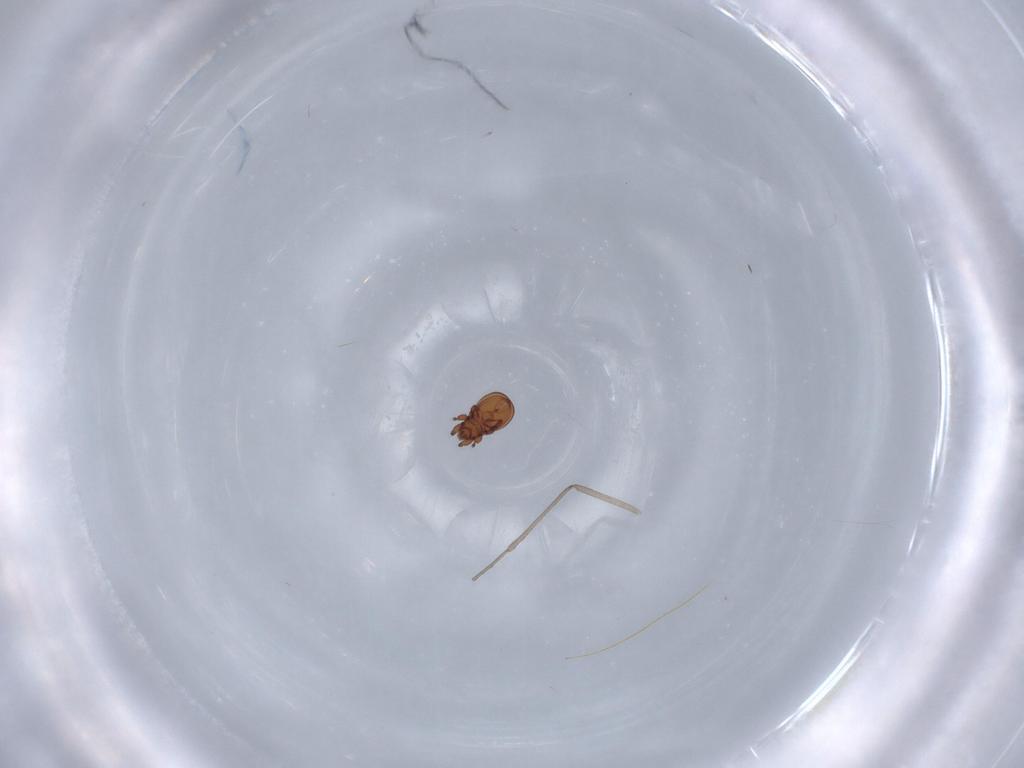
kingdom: Animalia
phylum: Arthropoda
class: Arachnida
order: Sarcoptiformes
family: Eremaeidae
